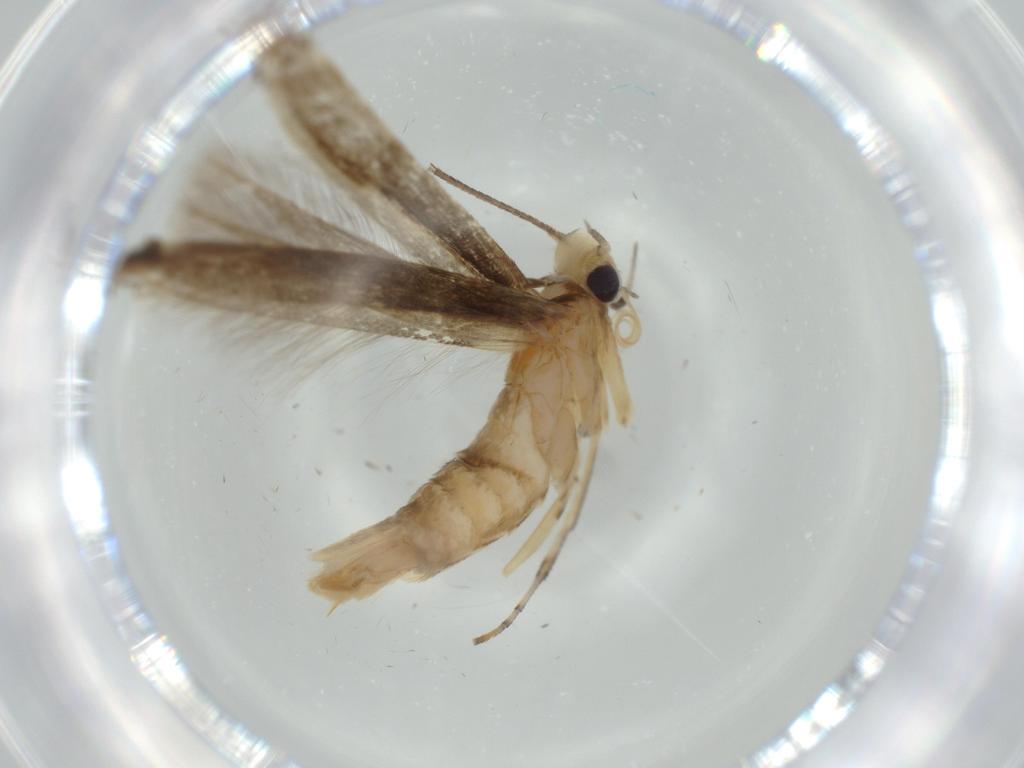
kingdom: Animalia
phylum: Arthropoda
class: Insecta
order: Lepidoptera
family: Gracillariidae
